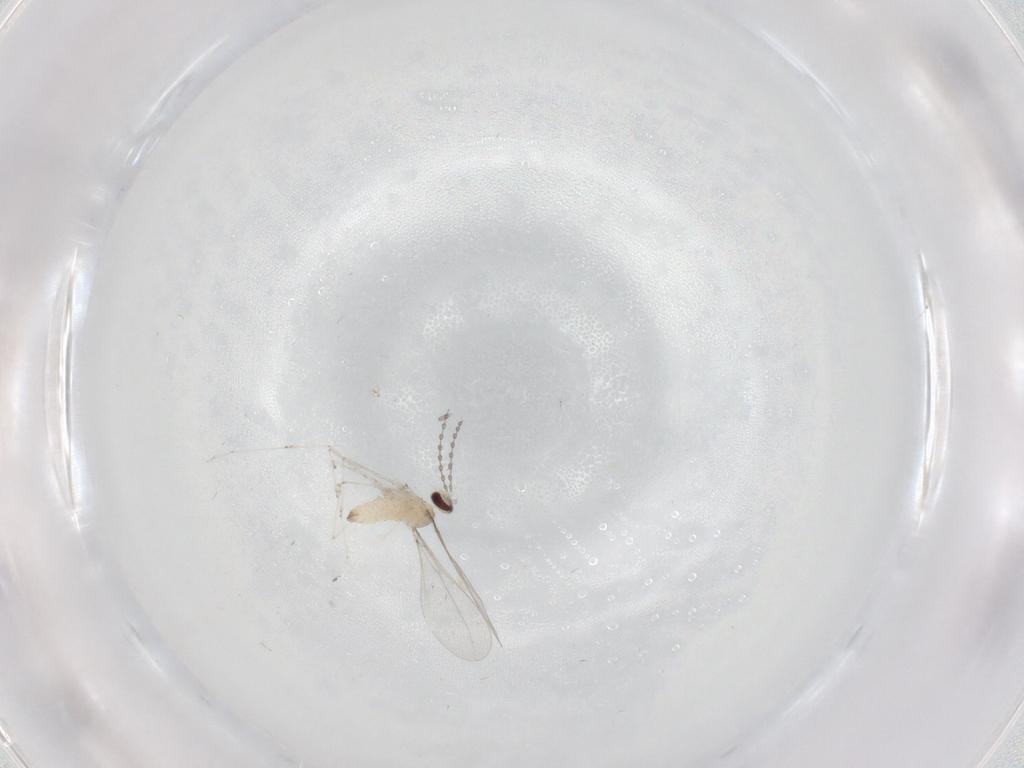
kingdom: Animalia
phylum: Arthropoda
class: Insecta
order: Diptera
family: Cecidomyiidae
